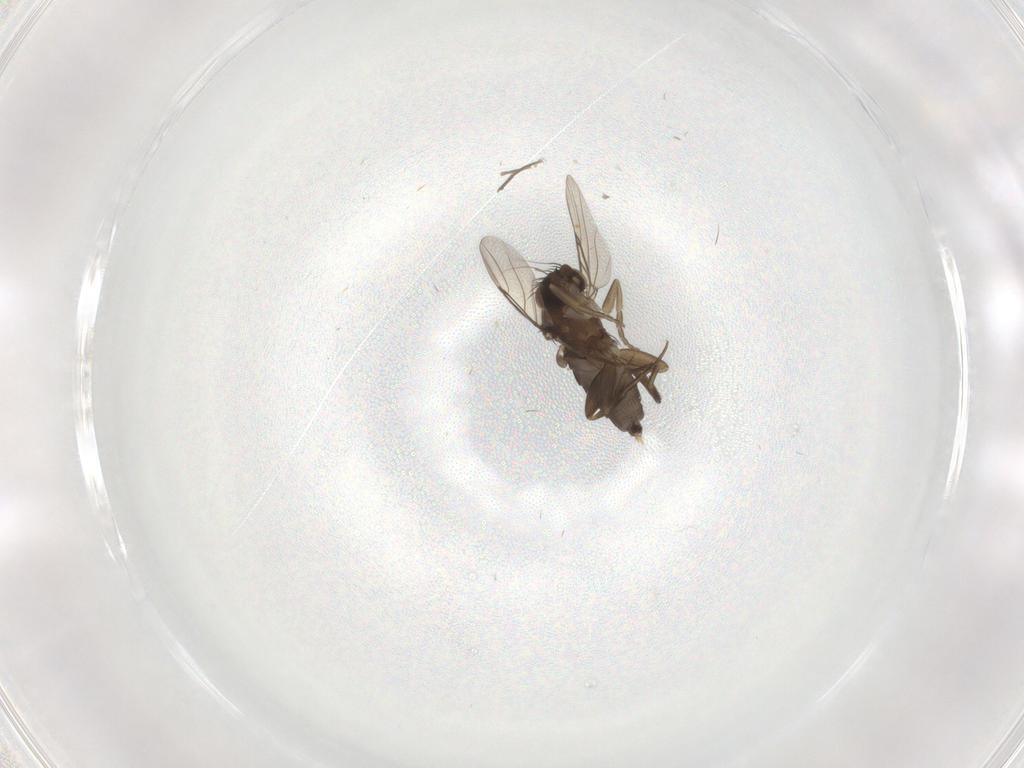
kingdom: Animalia
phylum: Arthropoda
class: Insecta
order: Diptera
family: Phoridae
